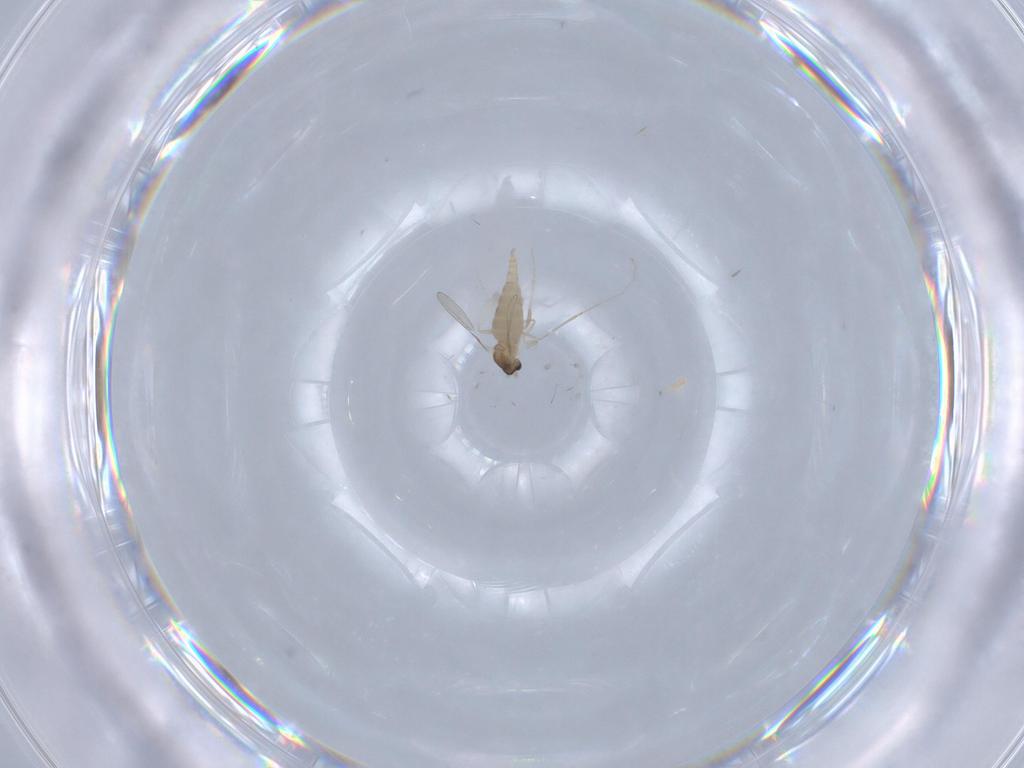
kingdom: Animalia
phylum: Arthropoda
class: Insecta
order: Diptera
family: Cecidomyiidae
